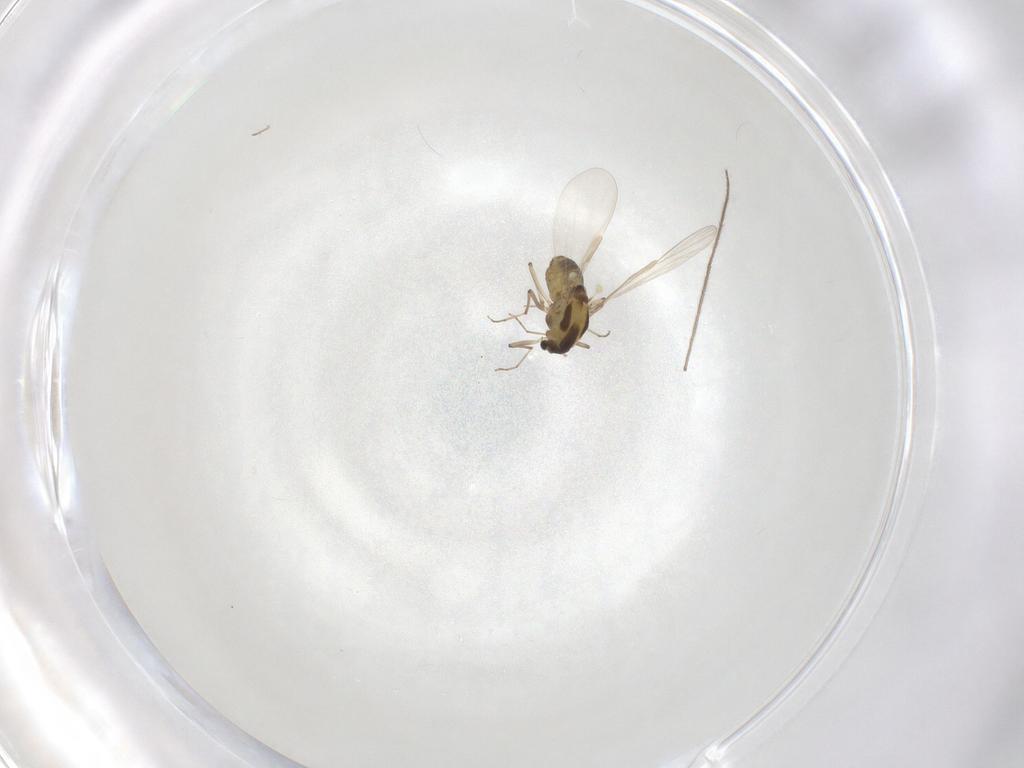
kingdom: Animalia
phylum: Arthropoda
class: Insecta
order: Diptera
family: Chironomidae
